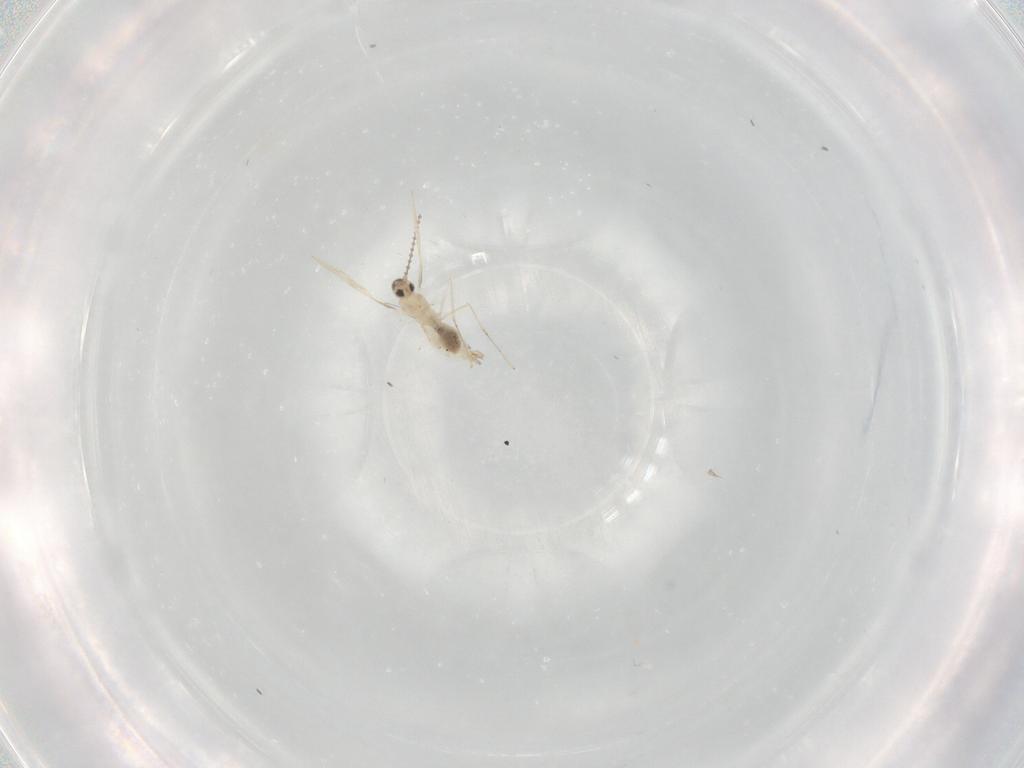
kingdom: Animalia
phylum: Arthropoda
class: Insecta
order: Diptera
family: Cecidomyiidae
